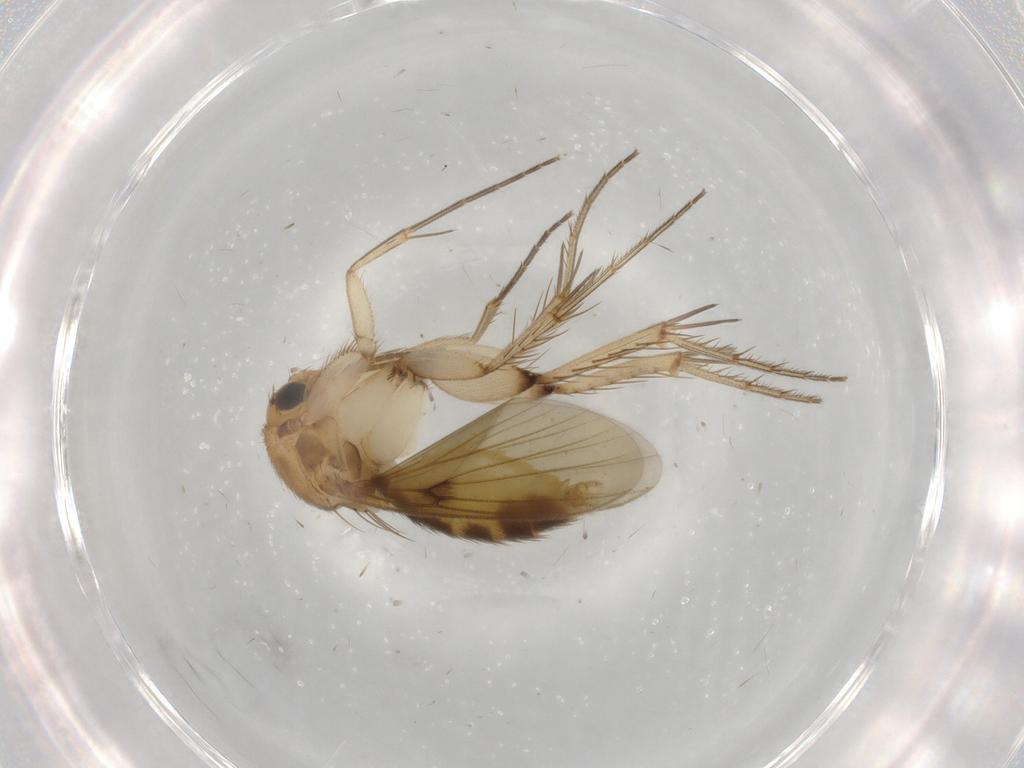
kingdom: Animalia
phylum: Arthropoda
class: Insecta
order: Diptera
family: Mycetophilidae
